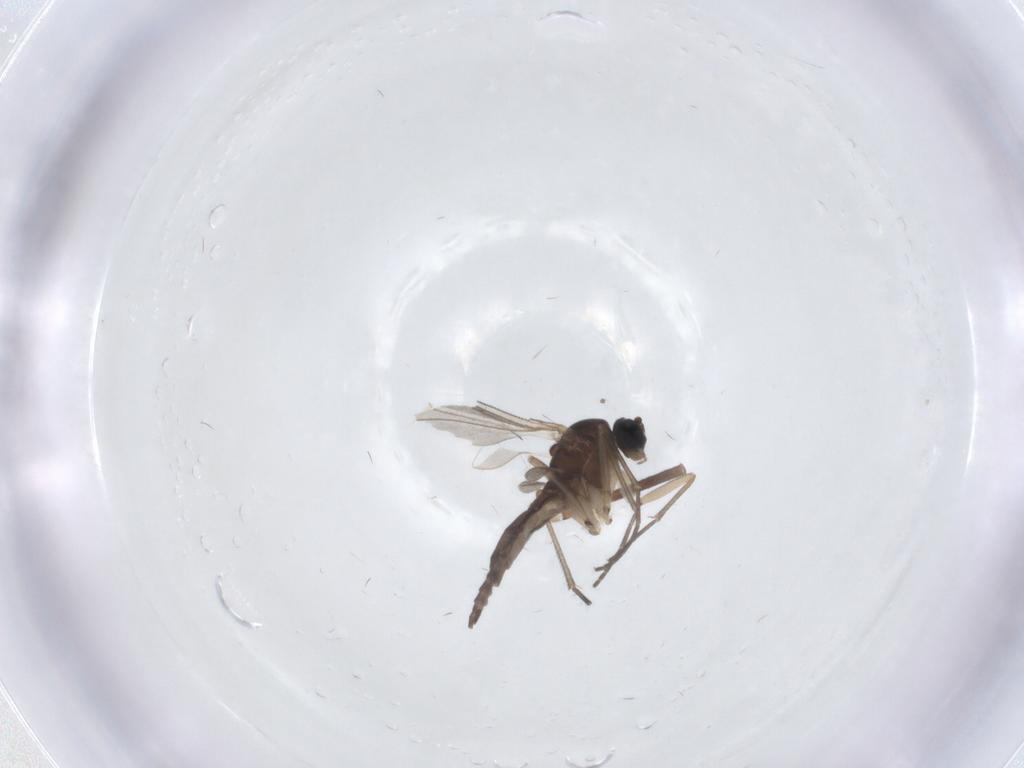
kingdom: Animalia
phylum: Arthropoda
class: Insecta
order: Diptera
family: Sciaridae
